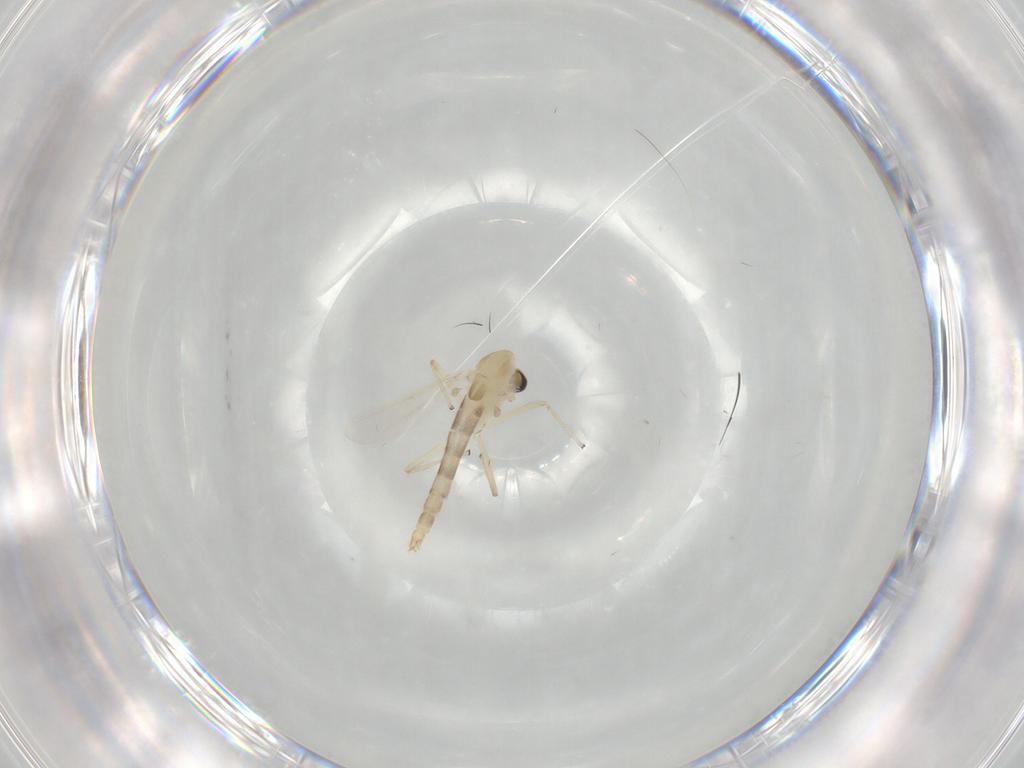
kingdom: Animalia
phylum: Arthropoda
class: Insecta
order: Diptera
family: Chironomidae
